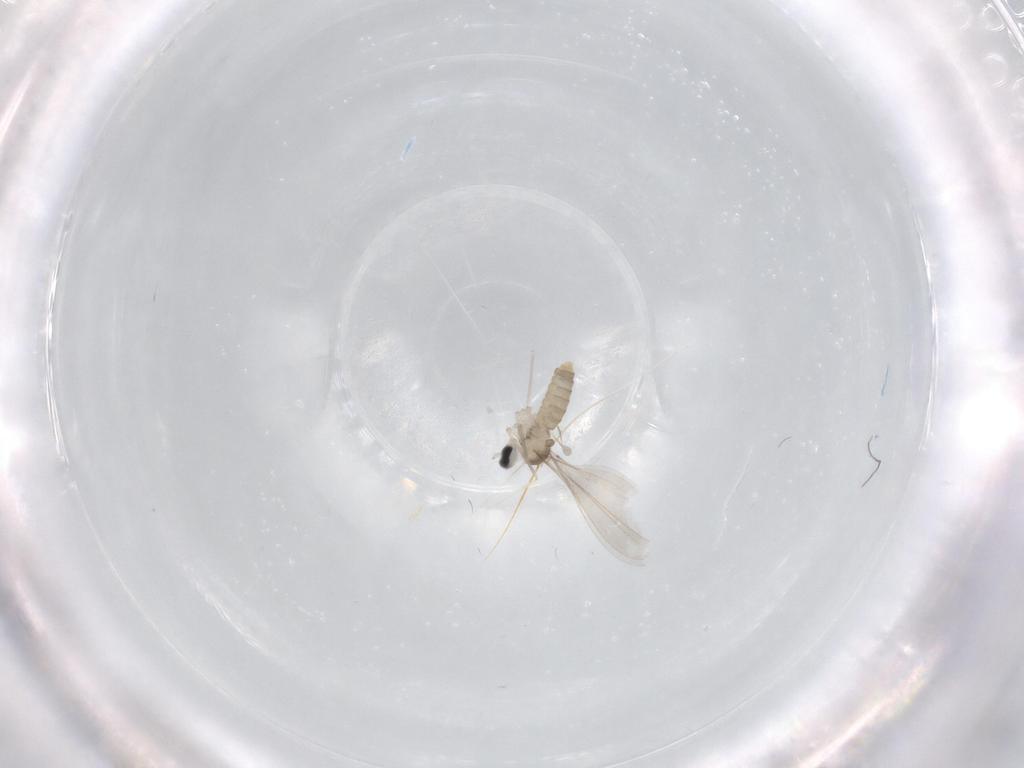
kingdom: Animalia
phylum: Arthropoda
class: Insecta
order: Diptera
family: Cecidomyiidae
